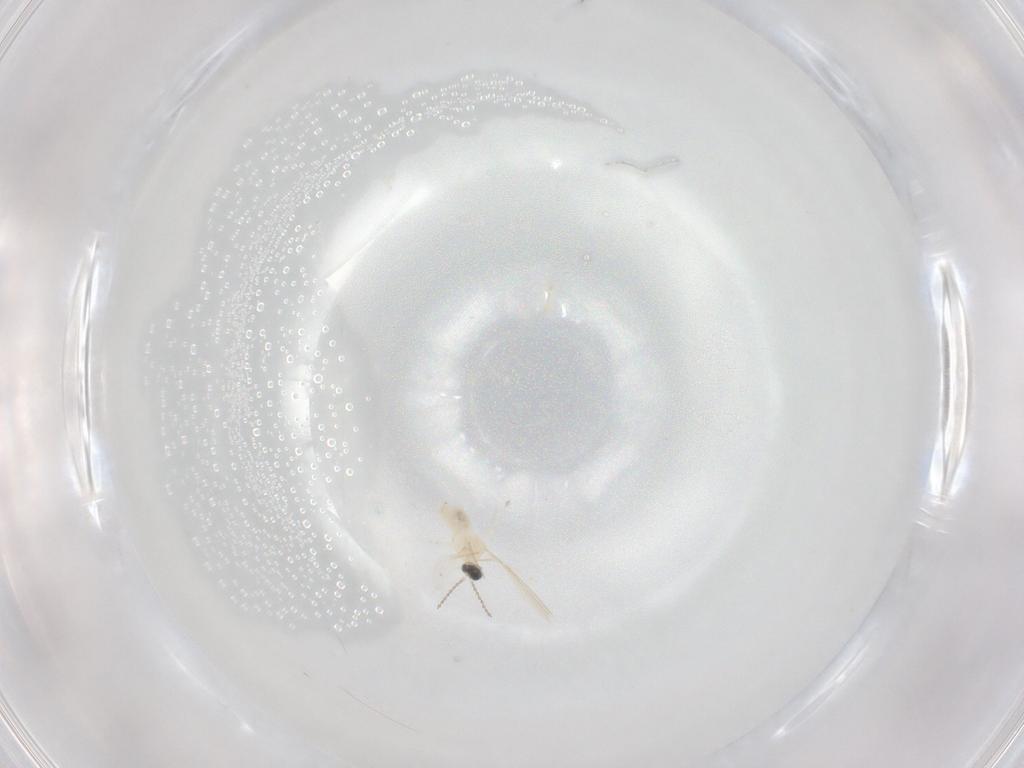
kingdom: Animalia
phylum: Arthropoda
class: Insecta
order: Diptera
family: Cecidomyiidae
